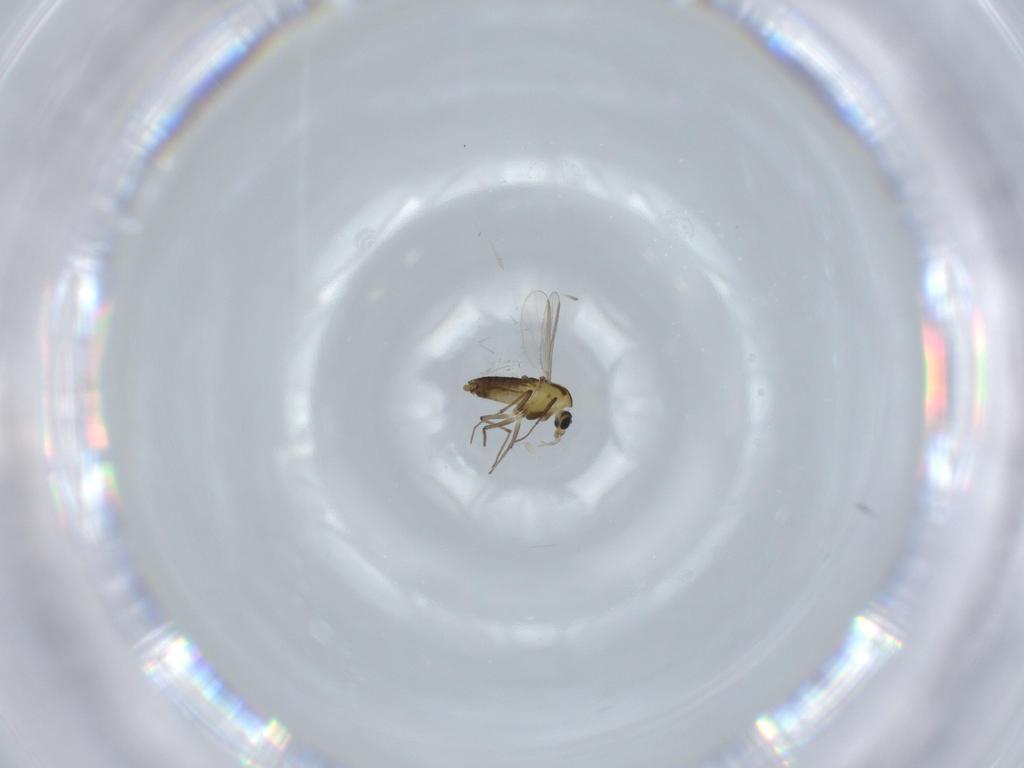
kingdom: Animalia
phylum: Arthropoda
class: Insecta
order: Diptera
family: Chironomidae
